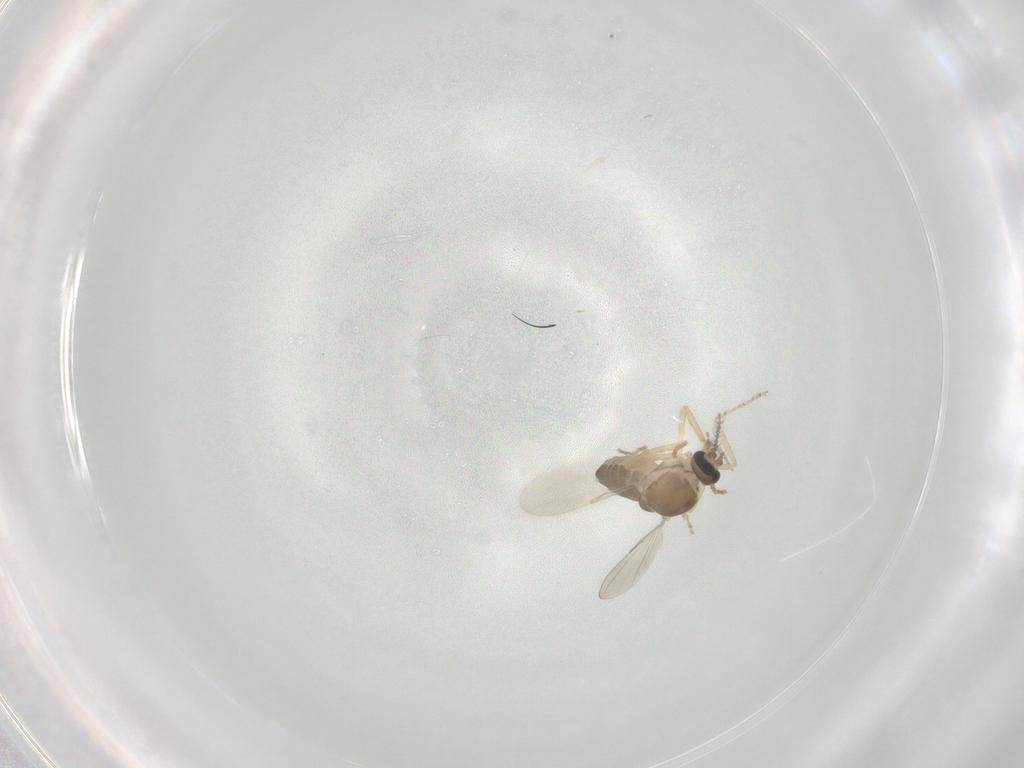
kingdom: Animalia
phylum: Arthropoda
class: Insecta
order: Diptera
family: Ceratopogonidae
